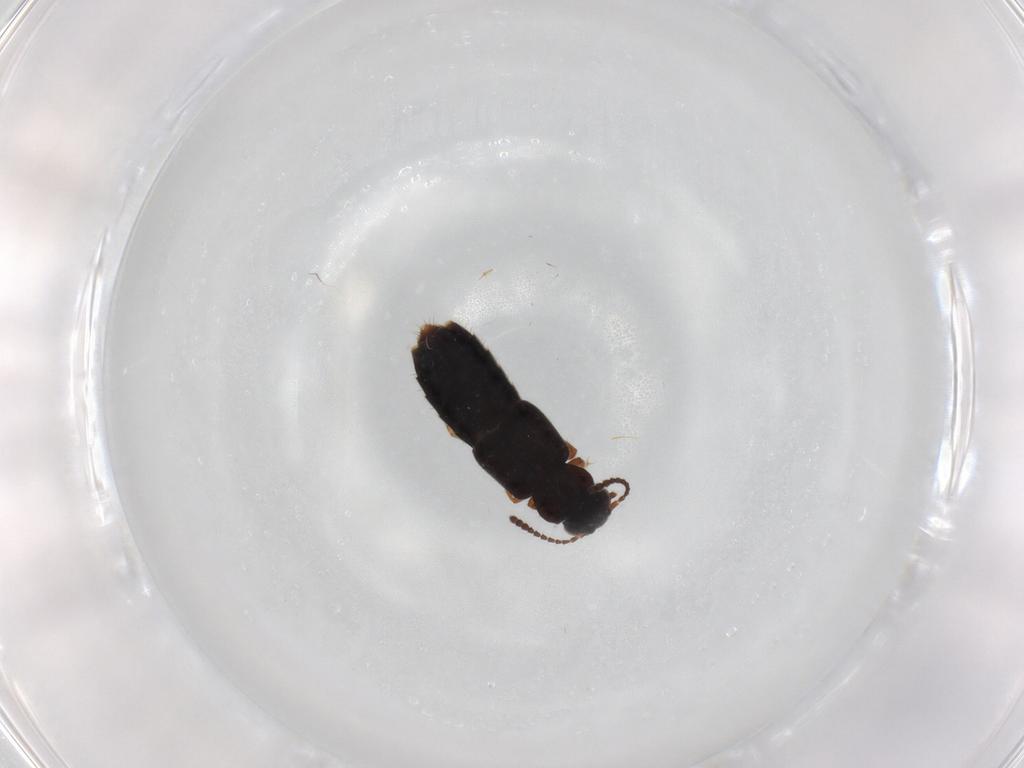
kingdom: Animalia
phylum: Arthropoda
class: Insecta
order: Coleoptera
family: Staphylinidae
